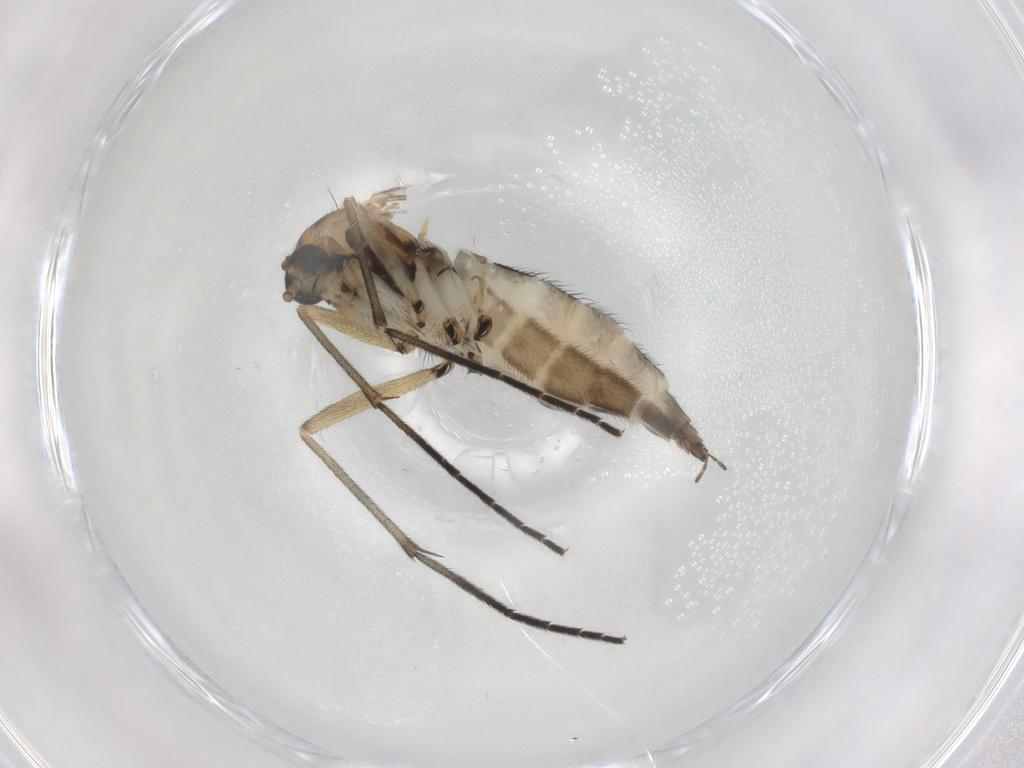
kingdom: Animalia
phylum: Arthropoda
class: Insecta
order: Diptera
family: Sciaridae
